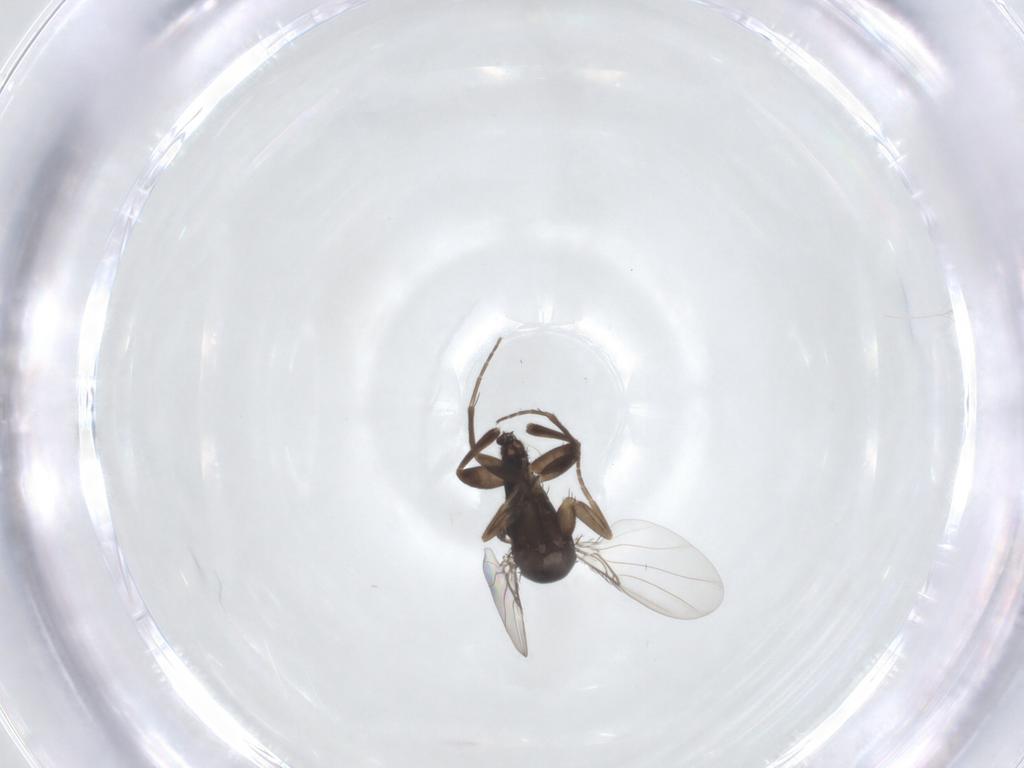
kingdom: Animalia
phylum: Arthropoda
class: Insecta
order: Diptera
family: Phoridae
